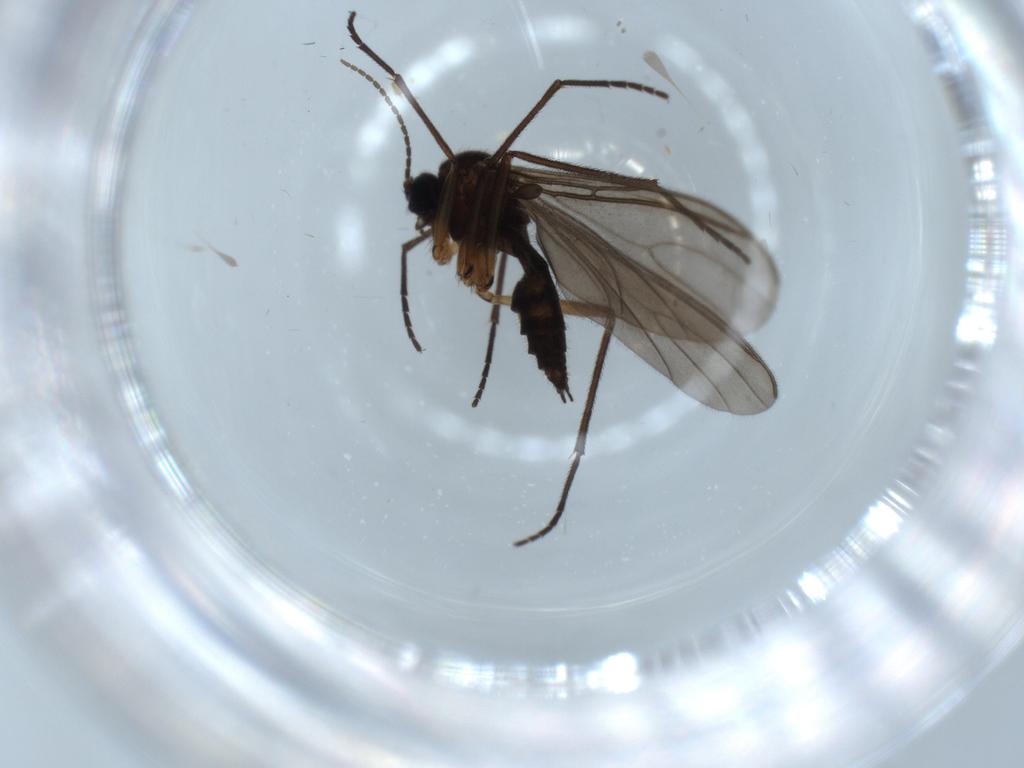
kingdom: Animalia
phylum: Arthropoda
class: Insecta
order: Diptera
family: Sciaridae
